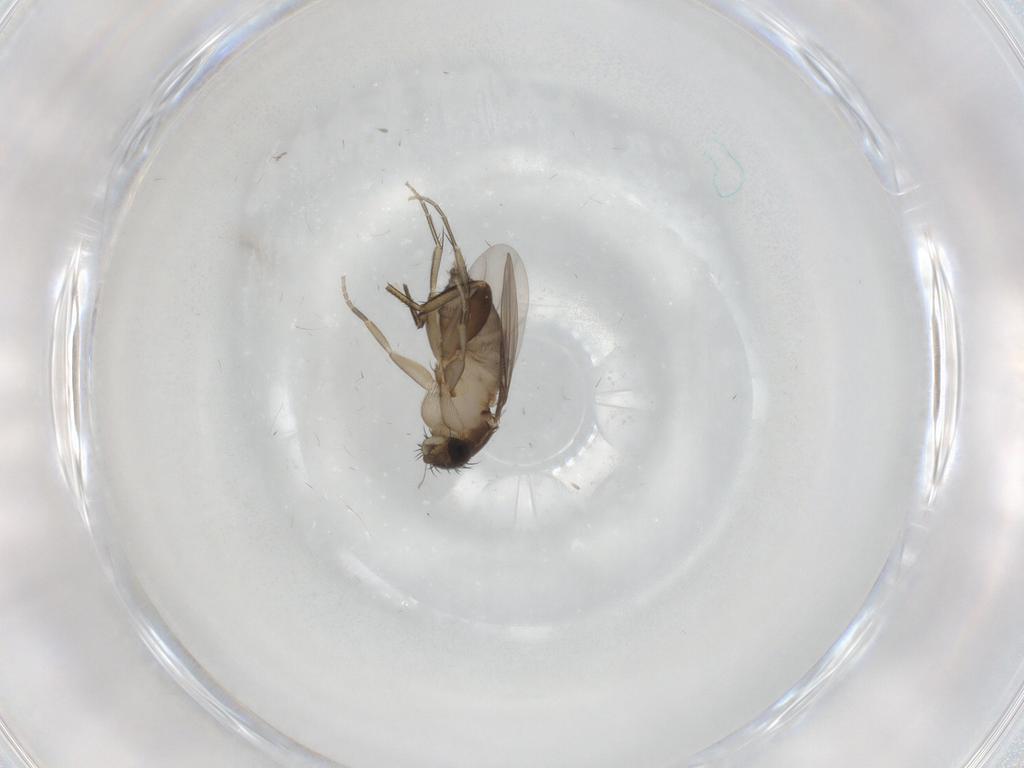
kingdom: Animalia
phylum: Arthropoda
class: Insecta
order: Diptera
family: Phoridae
